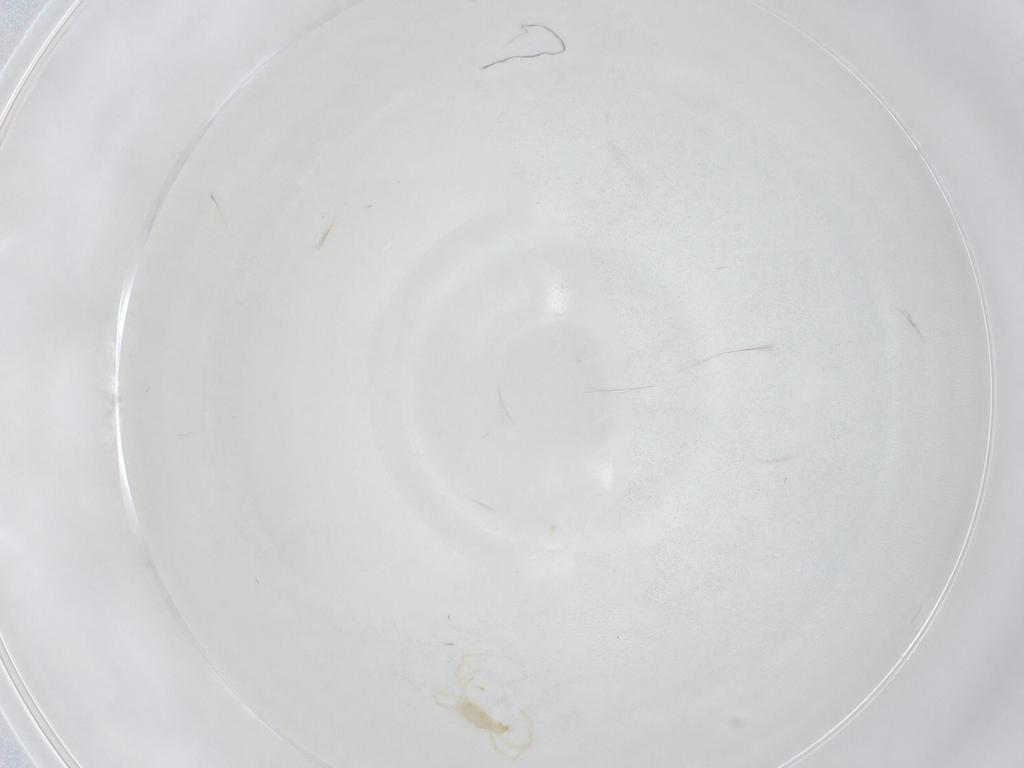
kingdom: Animalia
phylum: Arthropoda
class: Arachnida
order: Trombidiformes
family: Erythraeidae
